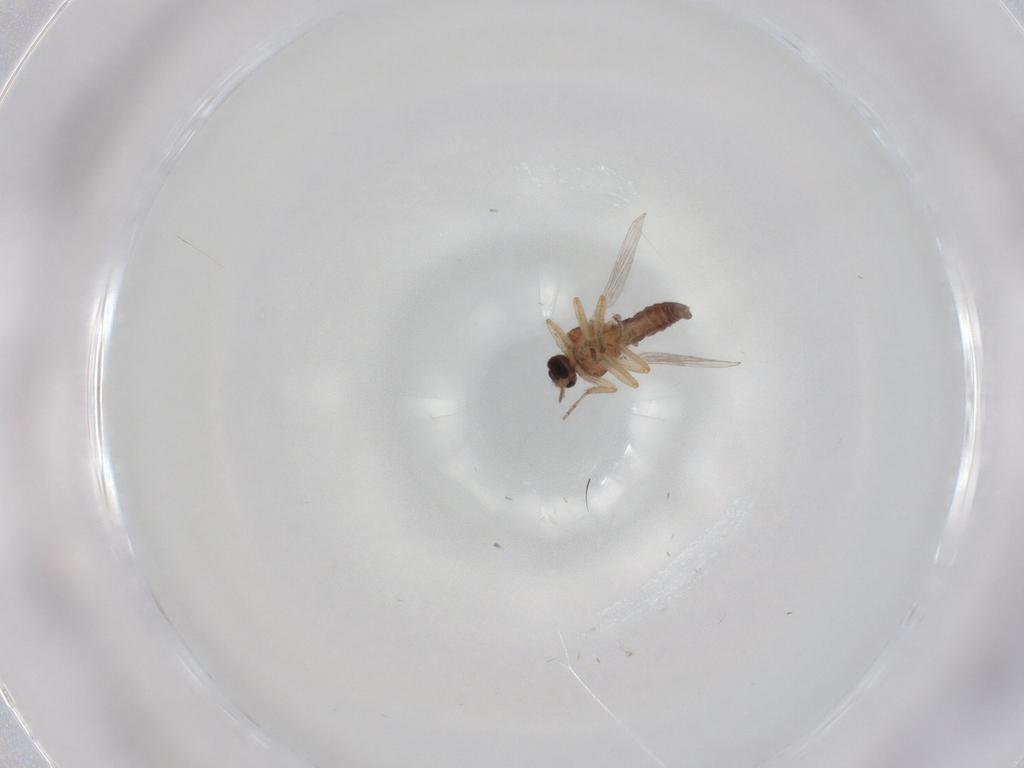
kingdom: Animalia
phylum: Arthropoda
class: Insecta
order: Diptera
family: Ceratopogonidae
